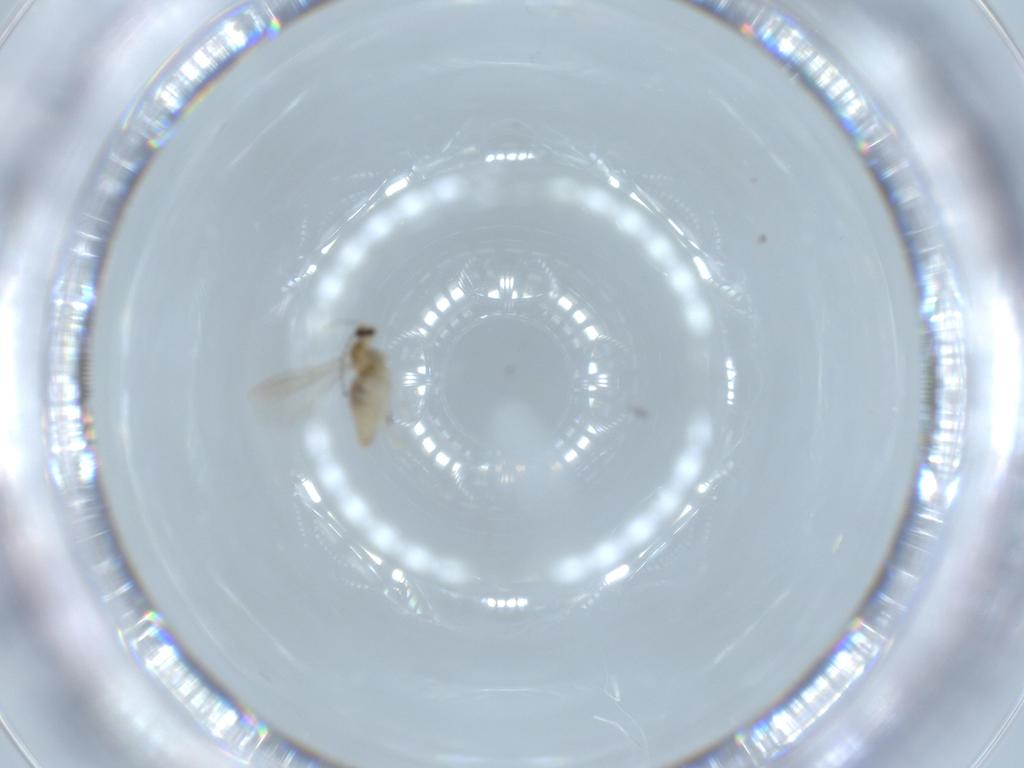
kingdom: Animalia
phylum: Arthropoda
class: Insecta
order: Diptera
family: Cecidomyiidae
